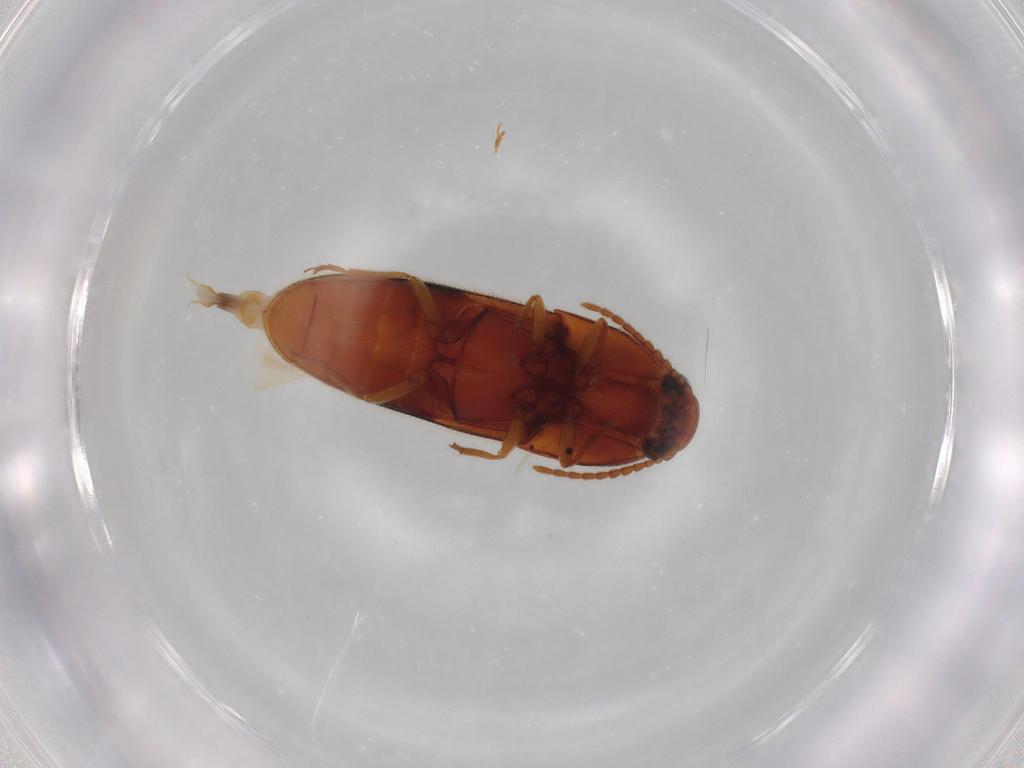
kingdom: Animalia
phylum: Arthropoda
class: Insecta
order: Coleoptera
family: Elateridae
